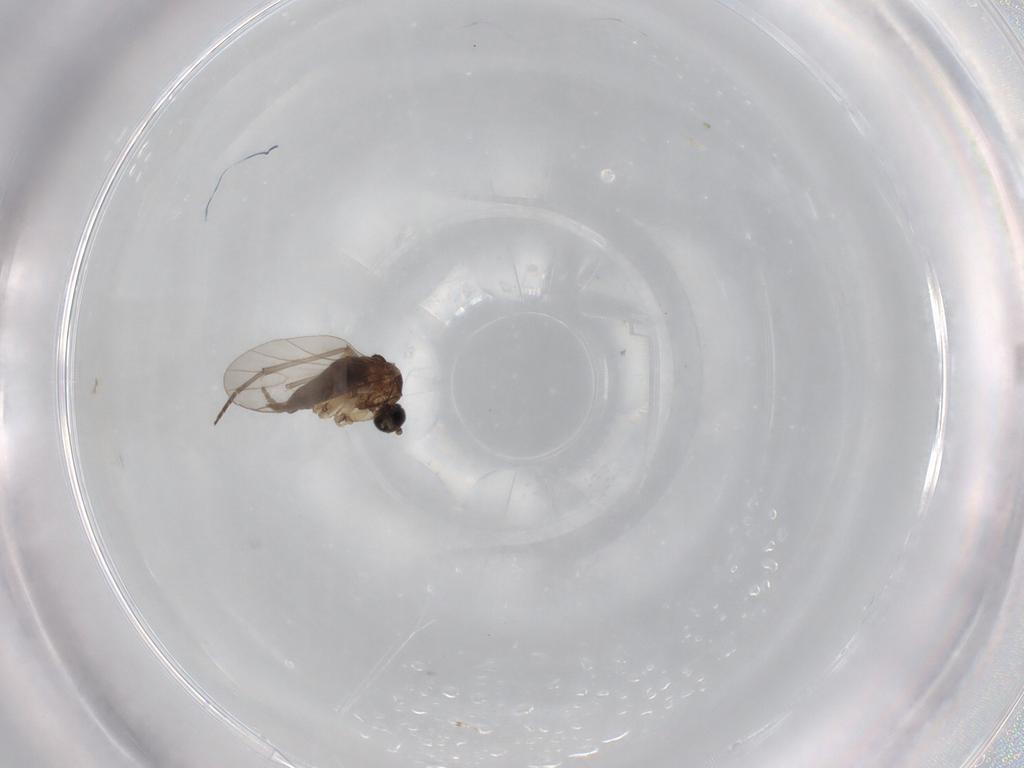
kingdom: Animalia
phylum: Arthropoda
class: Insecta
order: Diptera
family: Sciaridae
